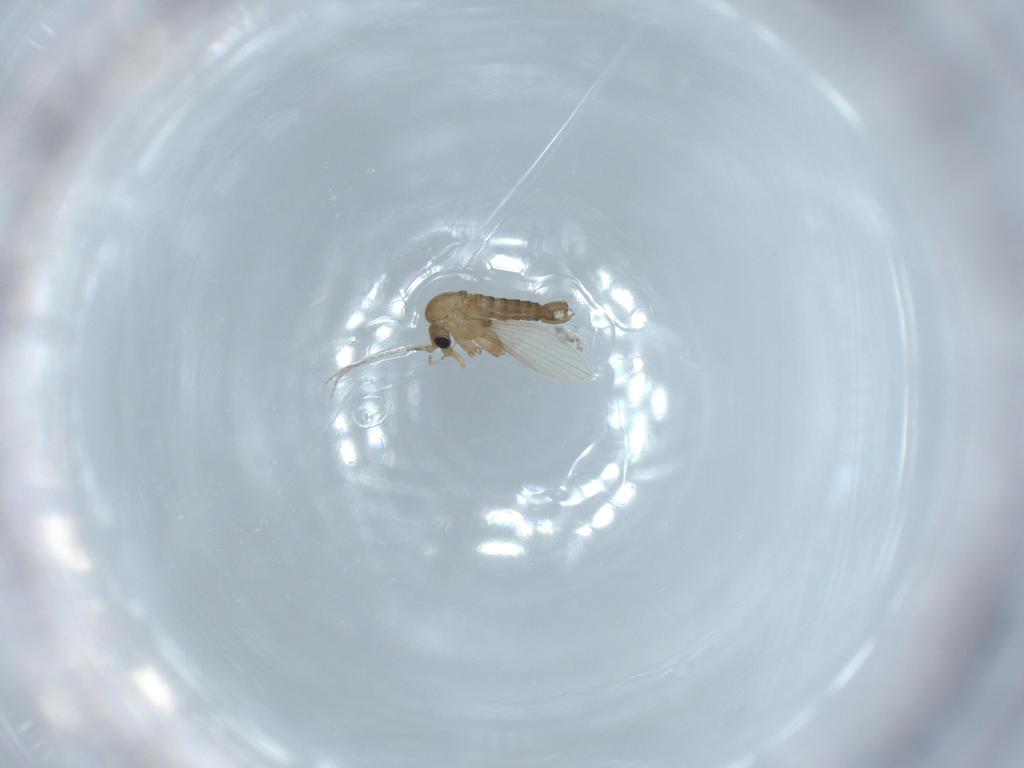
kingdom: Animalia
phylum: Arthropoda
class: Insecta
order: Diptera
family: Psychodidae
